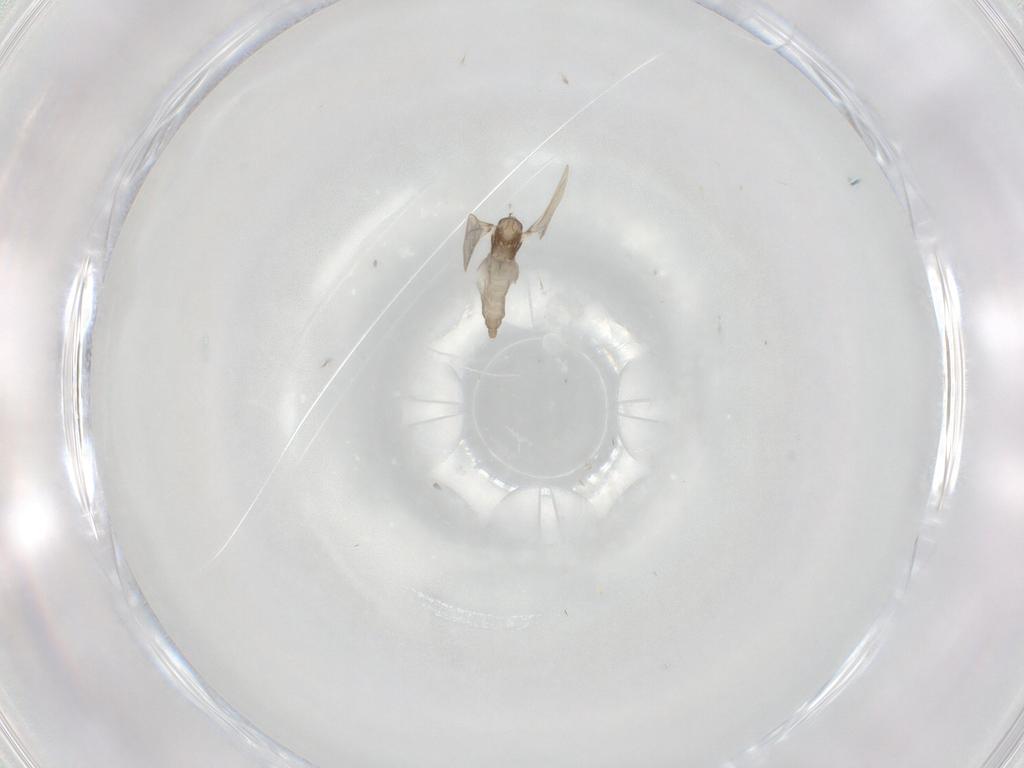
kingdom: Animalia
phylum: Arthropoda
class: Insecta
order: Diptera
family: Cecidomyiidae
